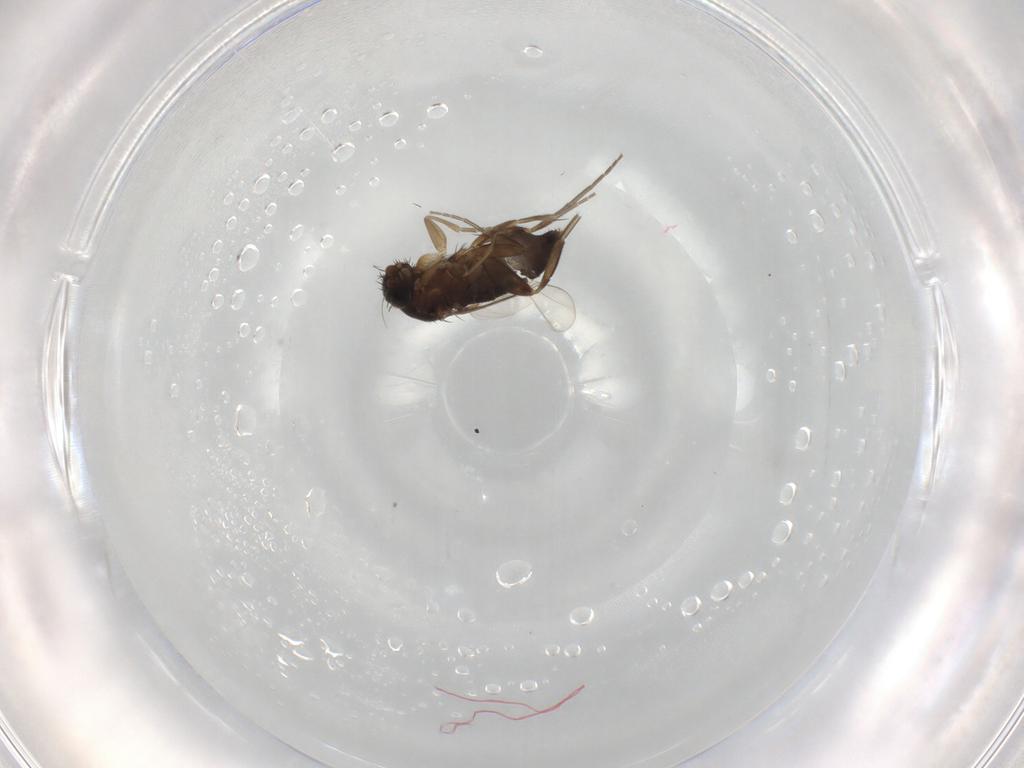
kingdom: Animalia
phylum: Arthropoda
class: Insecta
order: Diptera
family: Phoridae
